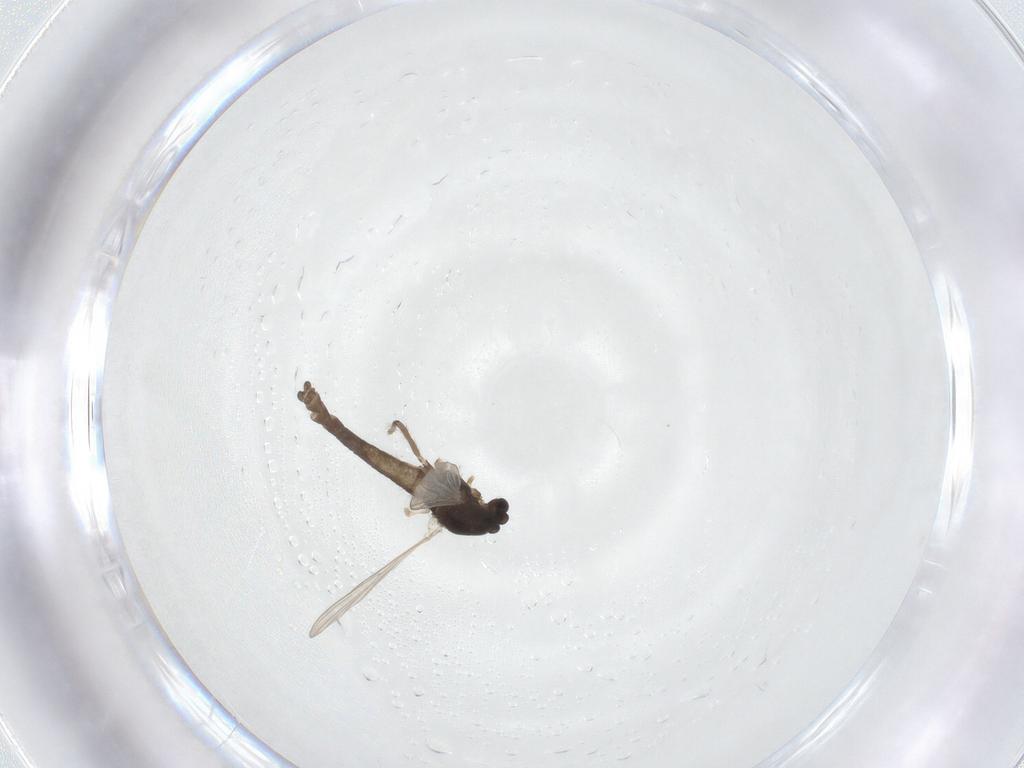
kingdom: Animalia
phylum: Arthropoda
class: Insecta
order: Diptera
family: Chironomidae
